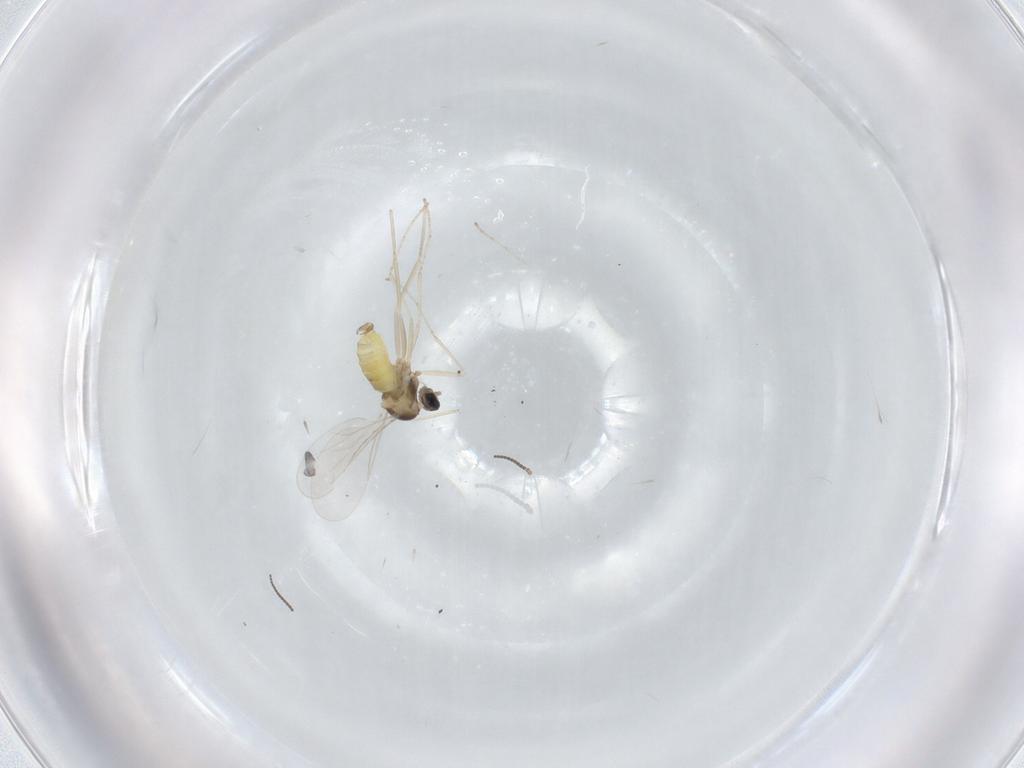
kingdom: Animalia
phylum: Arthropoda
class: Insecta
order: Diptera
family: Cecidomyiidae
